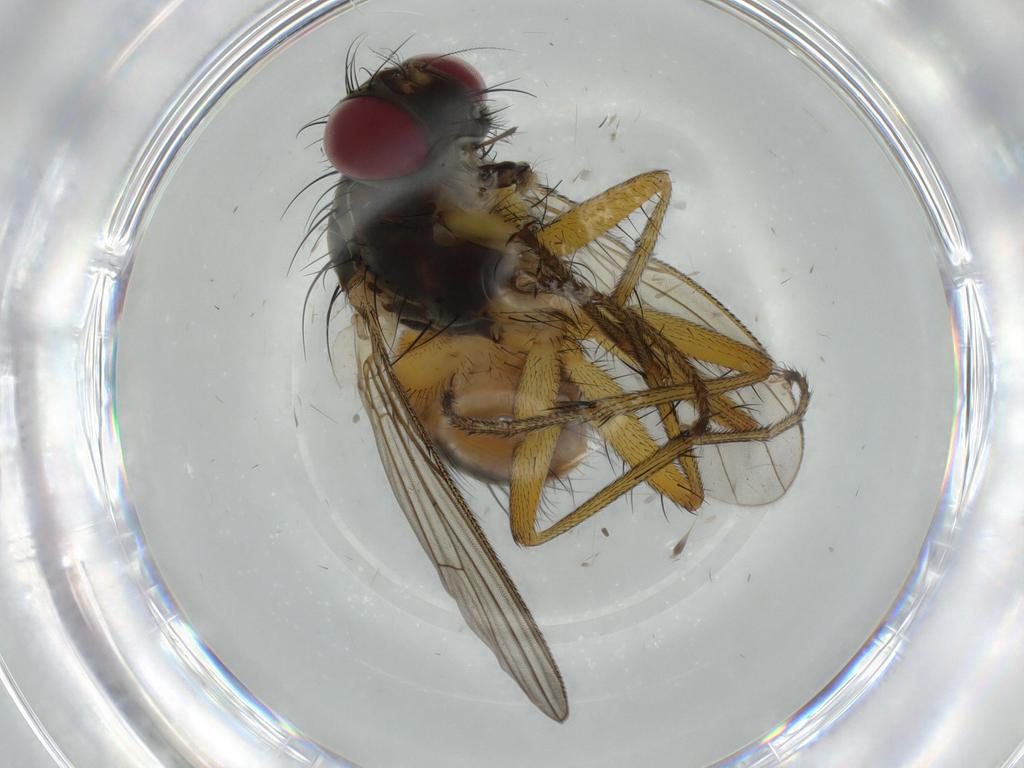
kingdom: Animalia
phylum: Arthropoda
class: Insecta
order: Diptera
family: Muscidae
